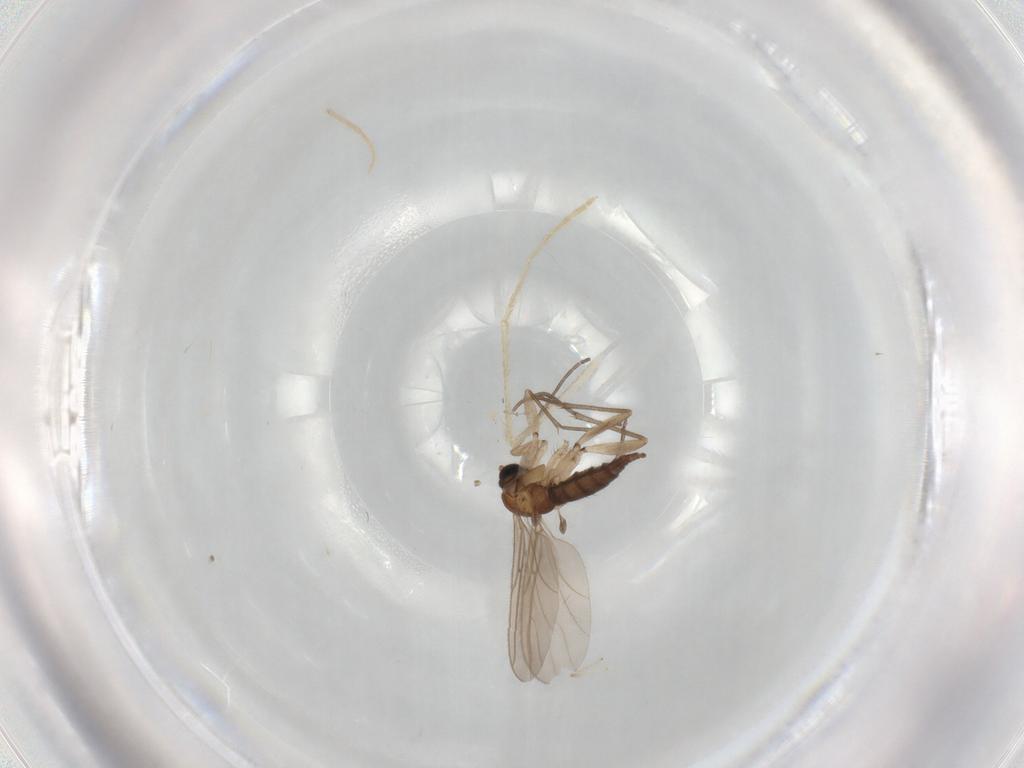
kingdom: Animalia
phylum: Arthropoda
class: Insecta
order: Diptera
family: Sciaridae
